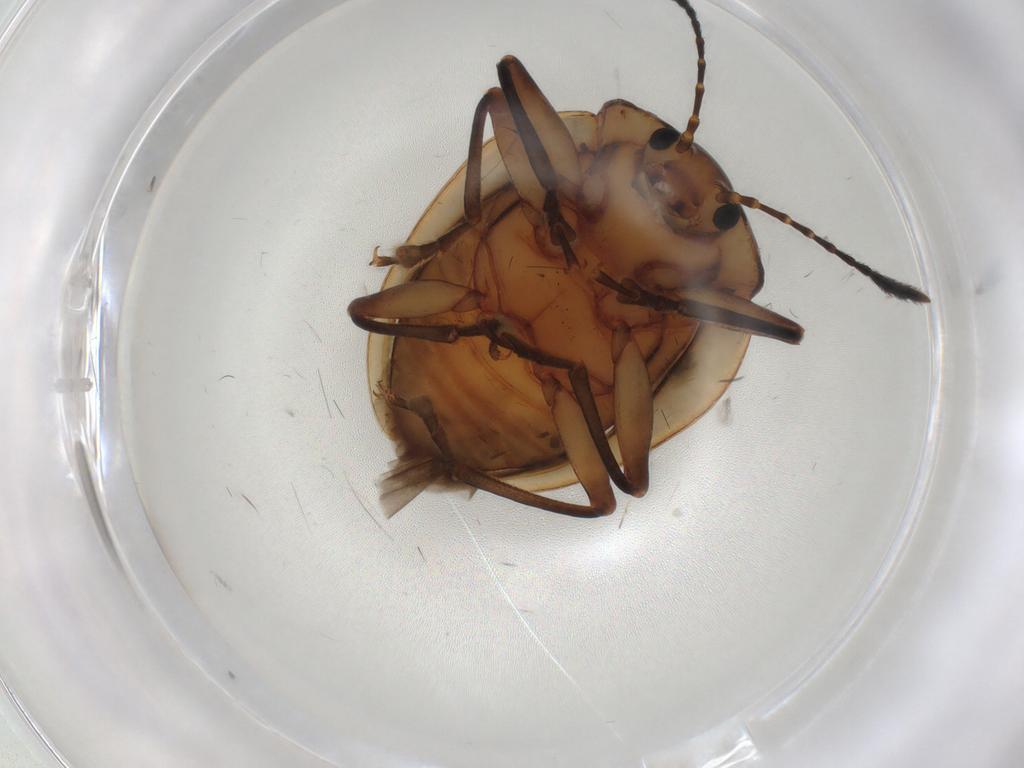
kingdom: Animalia
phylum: Arthropoda
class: Insecta
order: Coleoptera
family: Erotylidae
